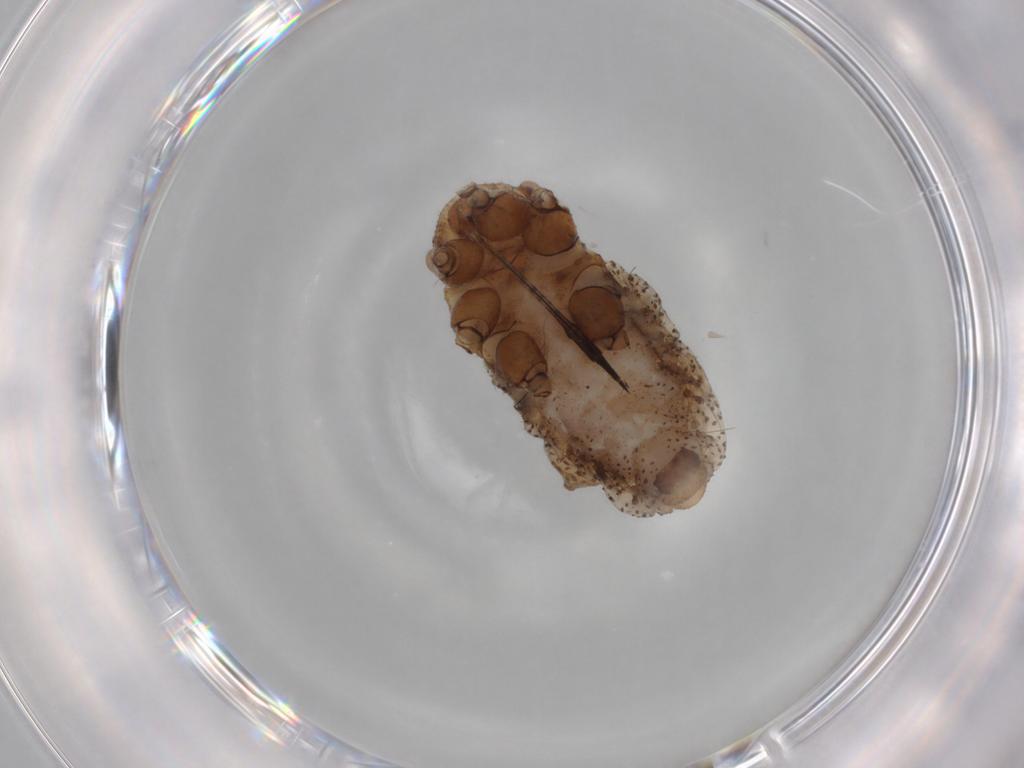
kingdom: Animalia
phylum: Arthropoda
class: Insecta
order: Hemiptera
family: Aphididae
